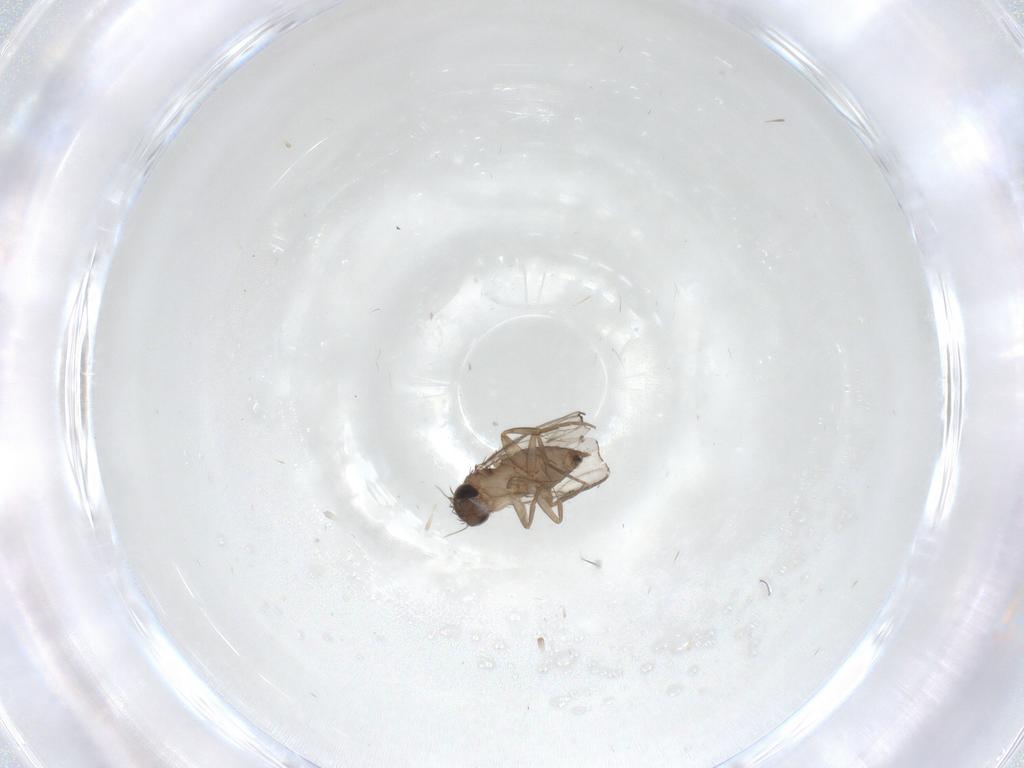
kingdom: Animalia
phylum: Arthropoda
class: Insecta
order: Diptera
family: Phoridae
